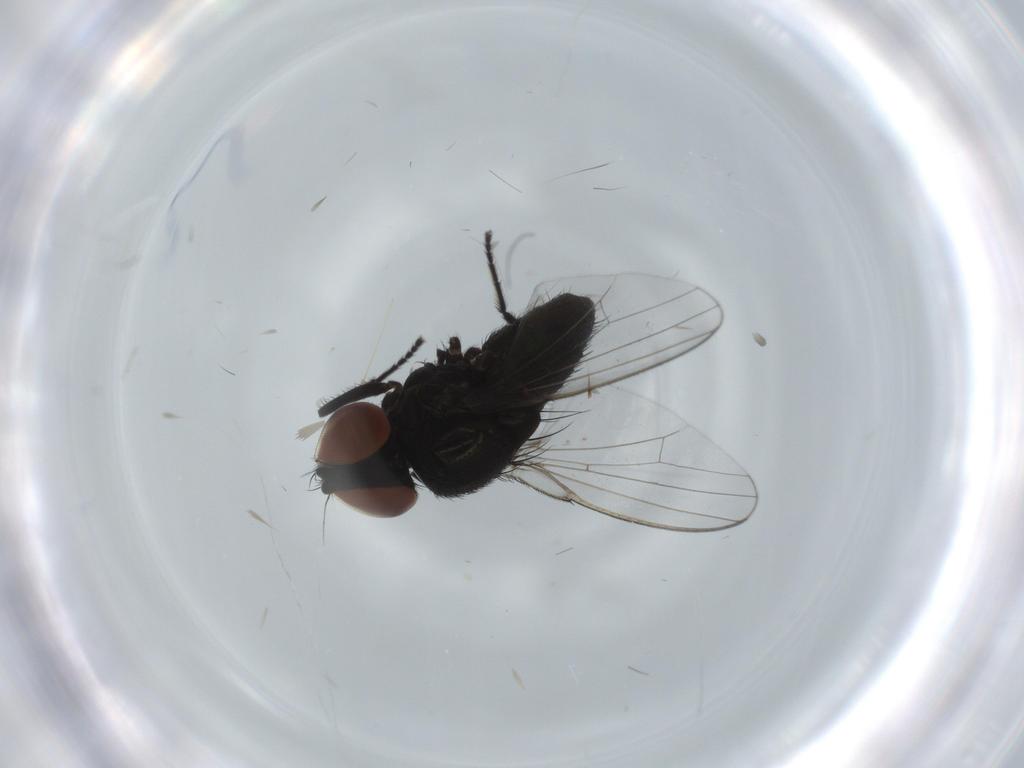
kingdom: Animalia
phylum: Arthropoda
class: Insecta
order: Diptera
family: Milichiidae
